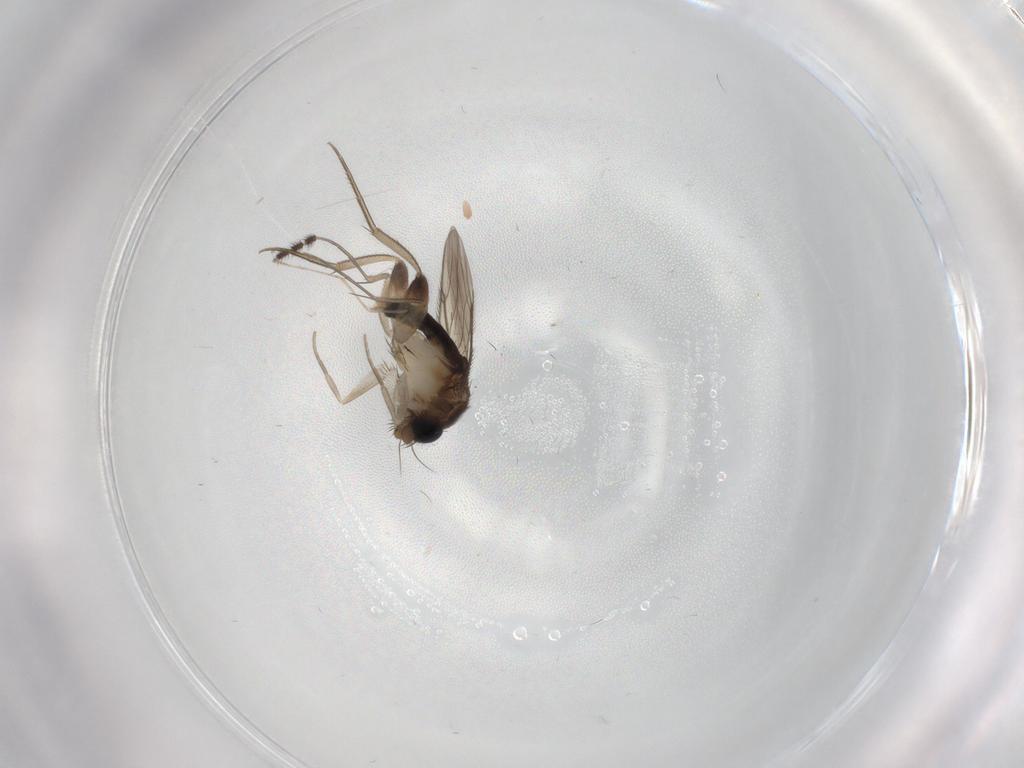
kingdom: Animalia
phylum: Arthropoda
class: Insecta
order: Diptera
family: Phoridae
